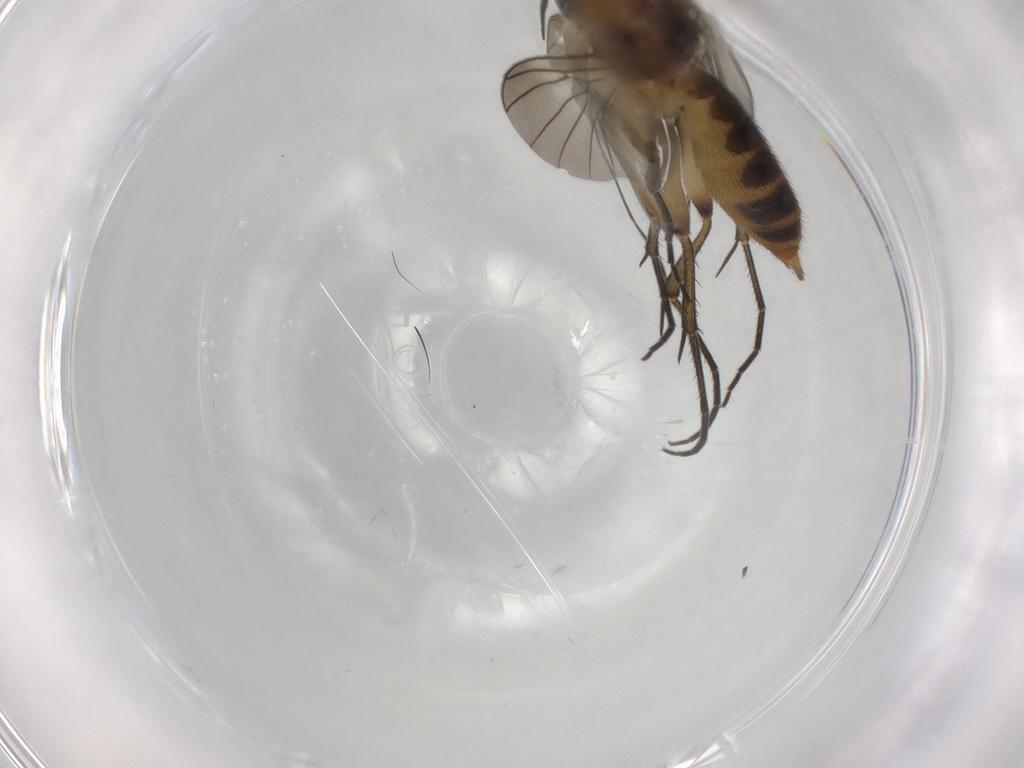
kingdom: Animalia
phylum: Arthropoda
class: Insecta
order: Diptera
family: Mycetophilidae
